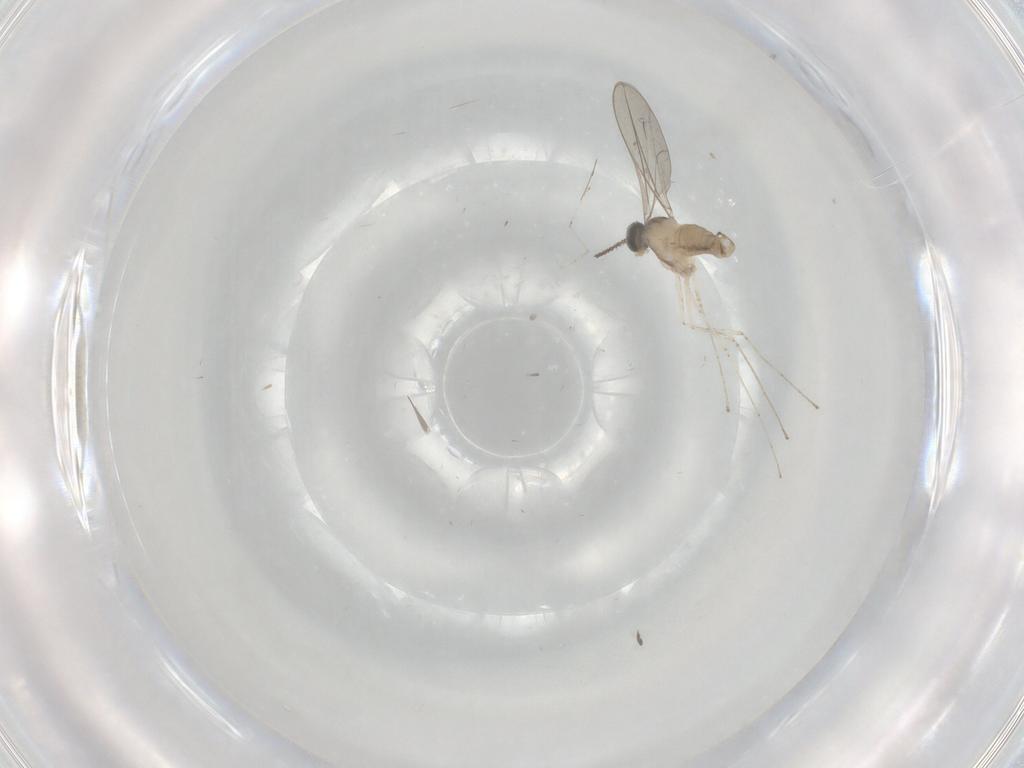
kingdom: Animalia
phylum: Arthropoda
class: Insecta
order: Diptera
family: Cecidomyiidae
